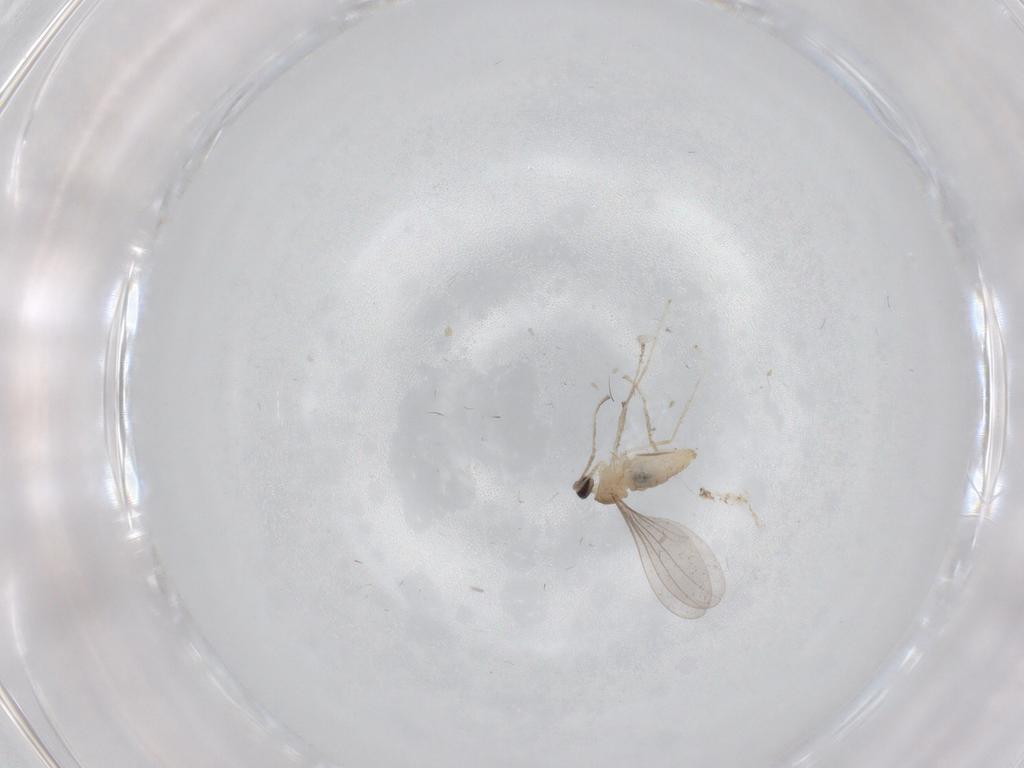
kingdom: Animalia
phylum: Arthropoda
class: Insecta
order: Diptera
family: Cecidomyiidae
